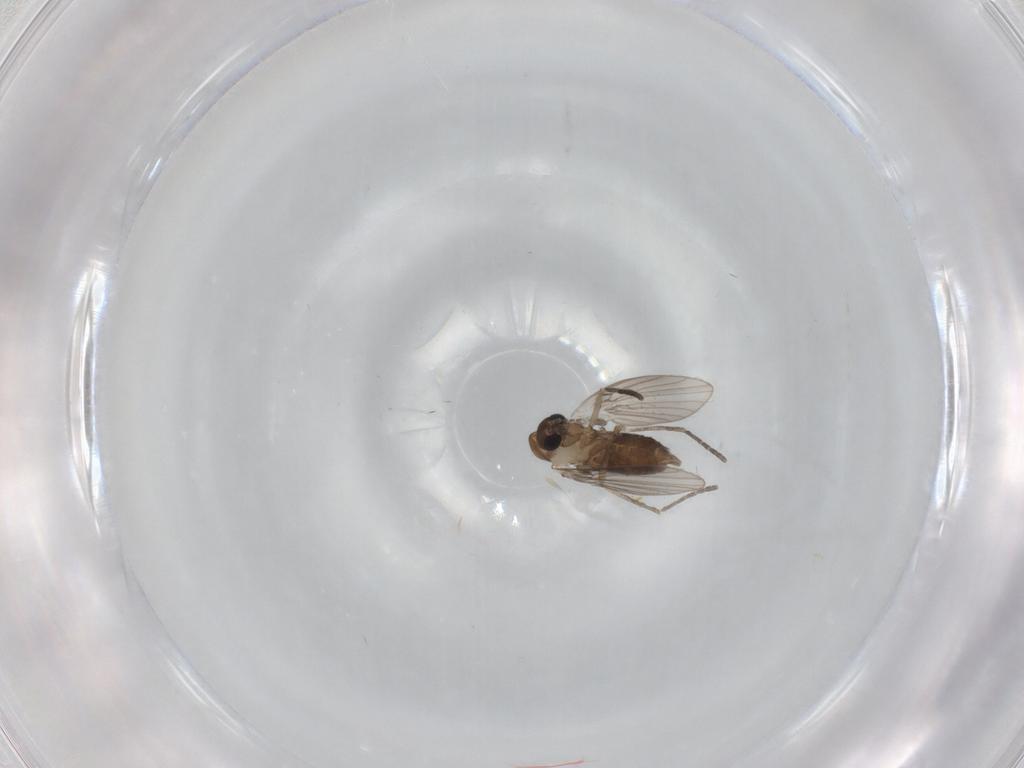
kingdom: Animalia
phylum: Arthropoda
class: Insecta
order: Diptera
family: Psychodidae
